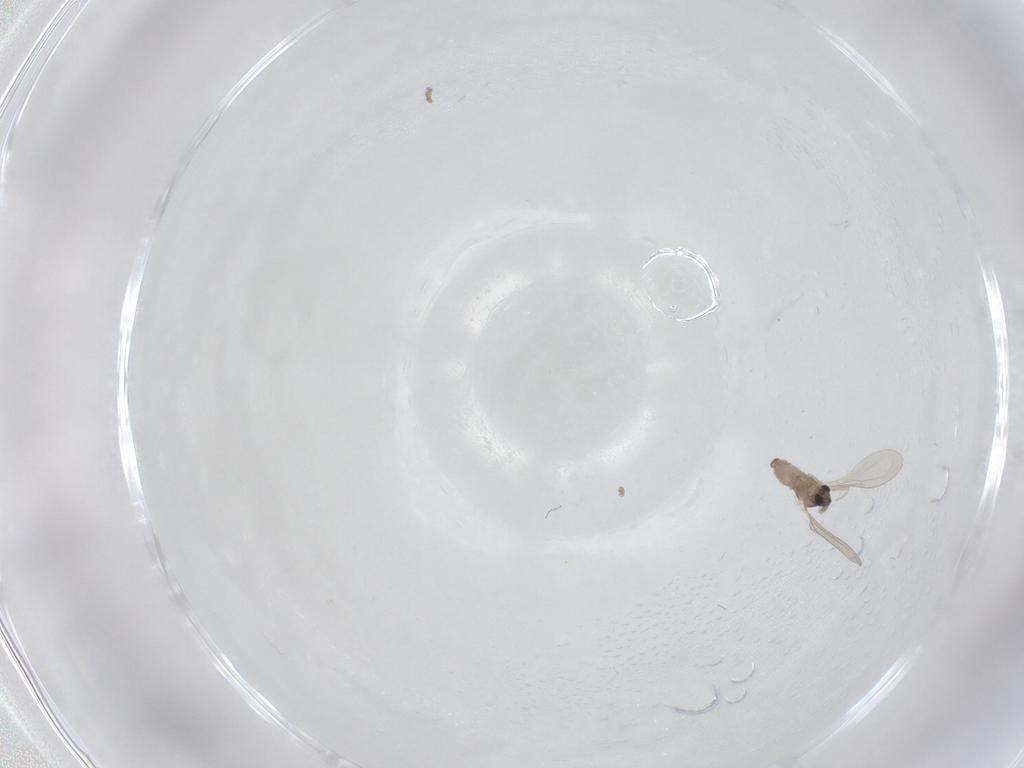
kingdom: Animalia
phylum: Arthropoda
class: Insecta
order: Diptera
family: Cecidomyiidae
